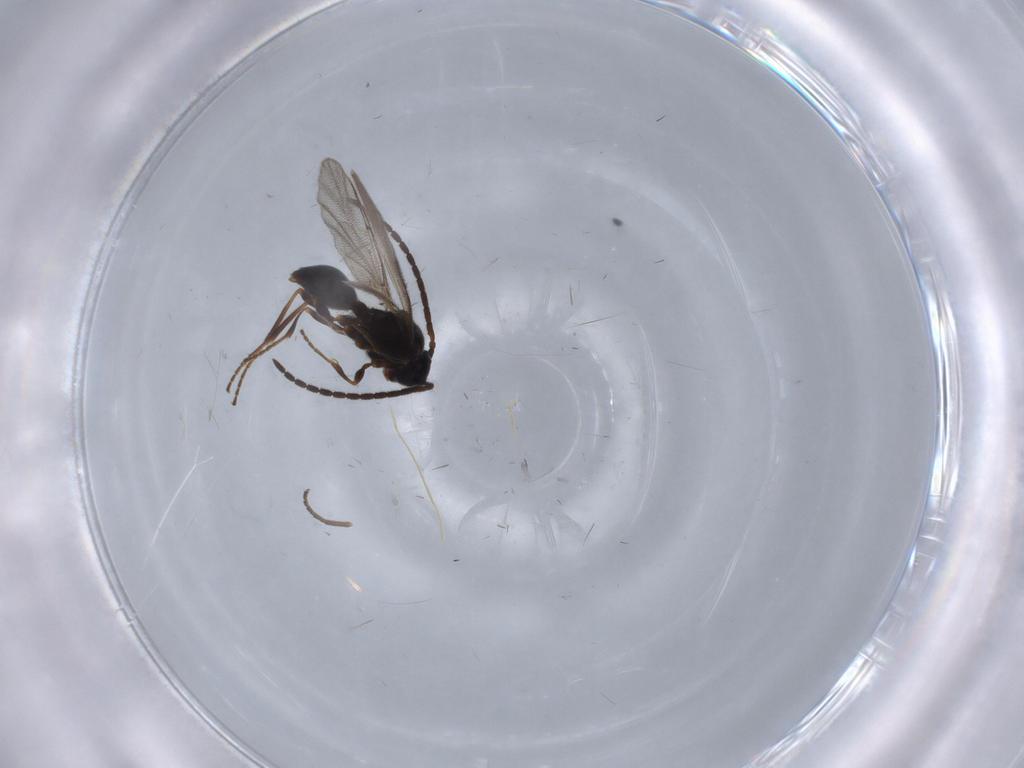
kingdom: Animalia
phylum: Arthropoda
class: Insecta
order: Hymenoptera
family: Diapriidae
